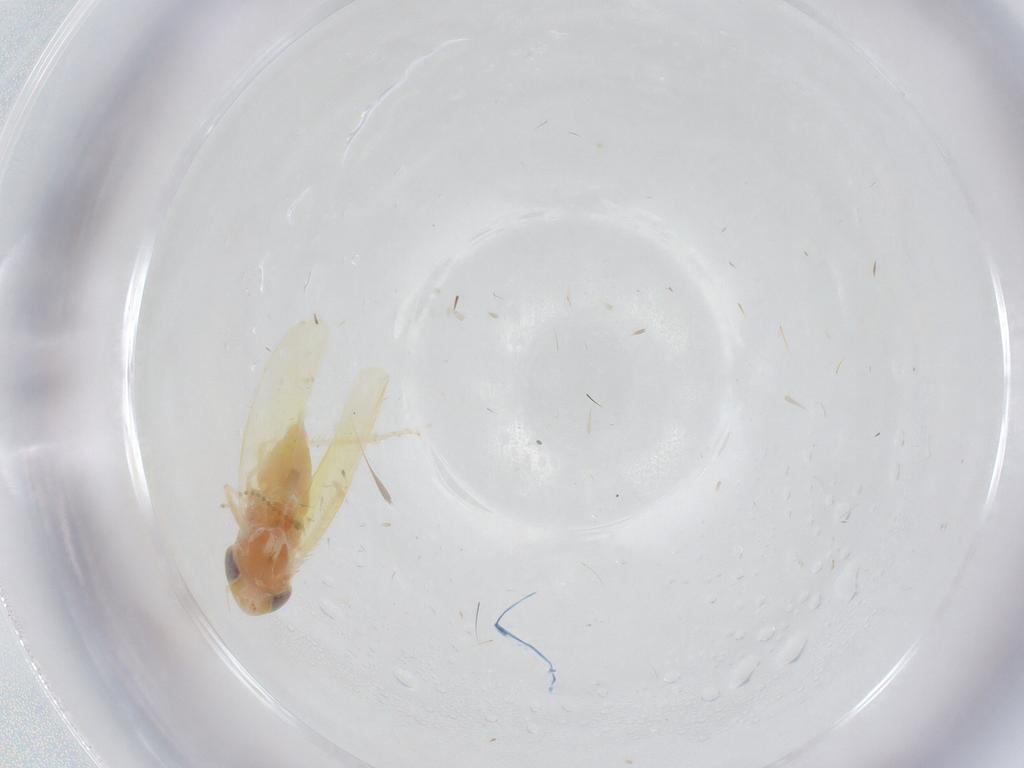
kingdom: Animalia
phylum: Arthropoda
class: Insecta
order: Hemiptera
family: Cicadellidae
